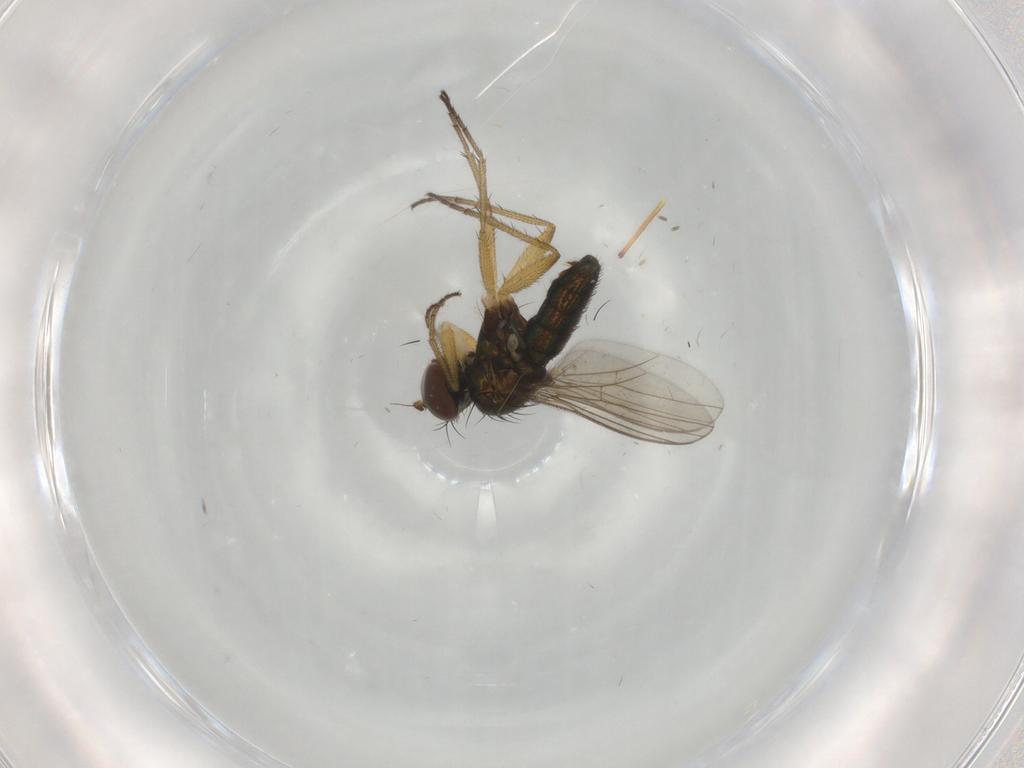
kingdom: Animalia
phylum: Arthropoda
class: Insecta
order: Diptera
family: Dolichopodidae
